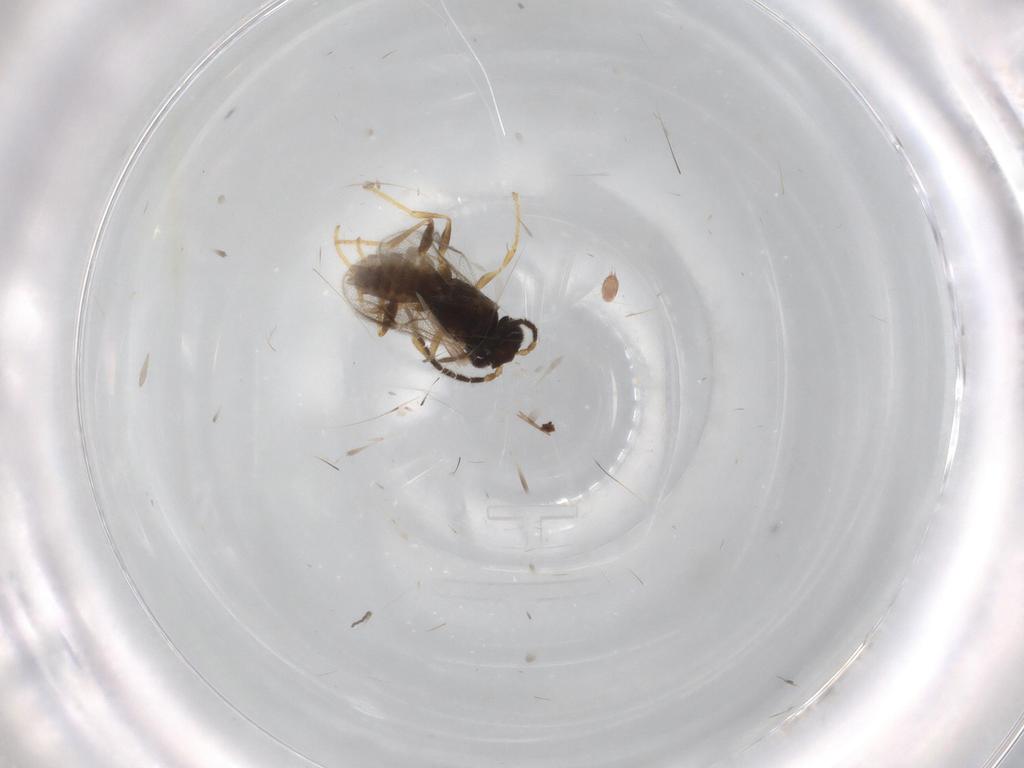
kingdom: Animalia
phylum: Arthropoda
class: Insecta
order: Hymenoptera
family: Dryinidae
